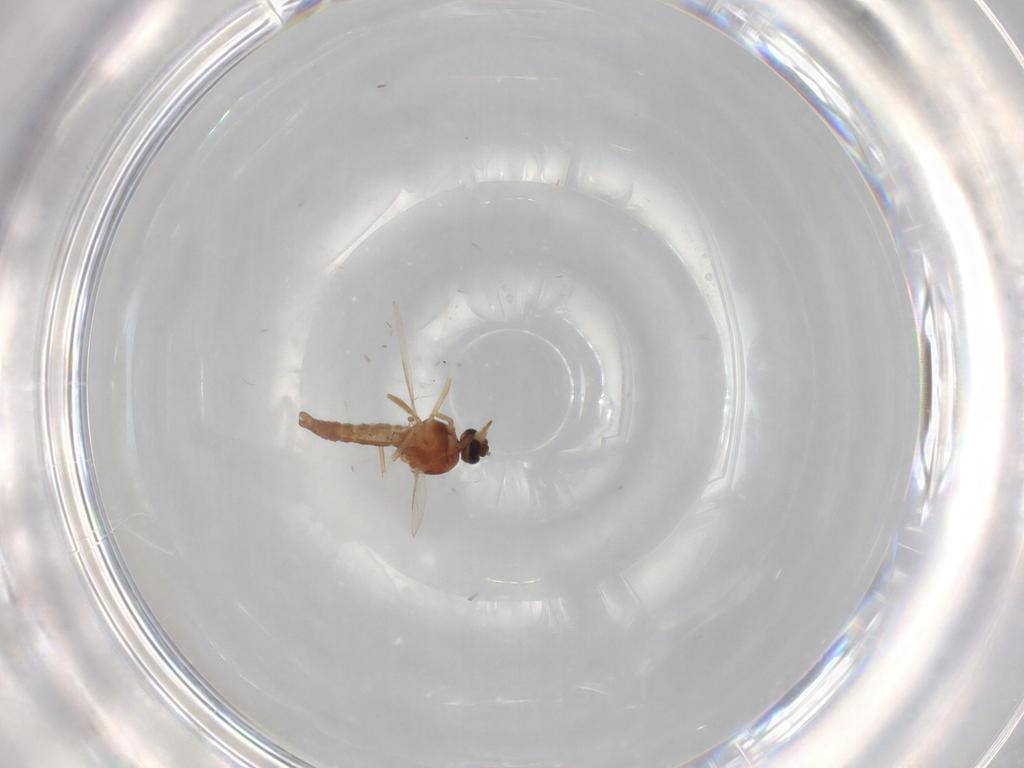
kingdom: Animalia
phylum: Arthropoda
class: Insecta
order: Diptera
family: Ceratopogonidae
